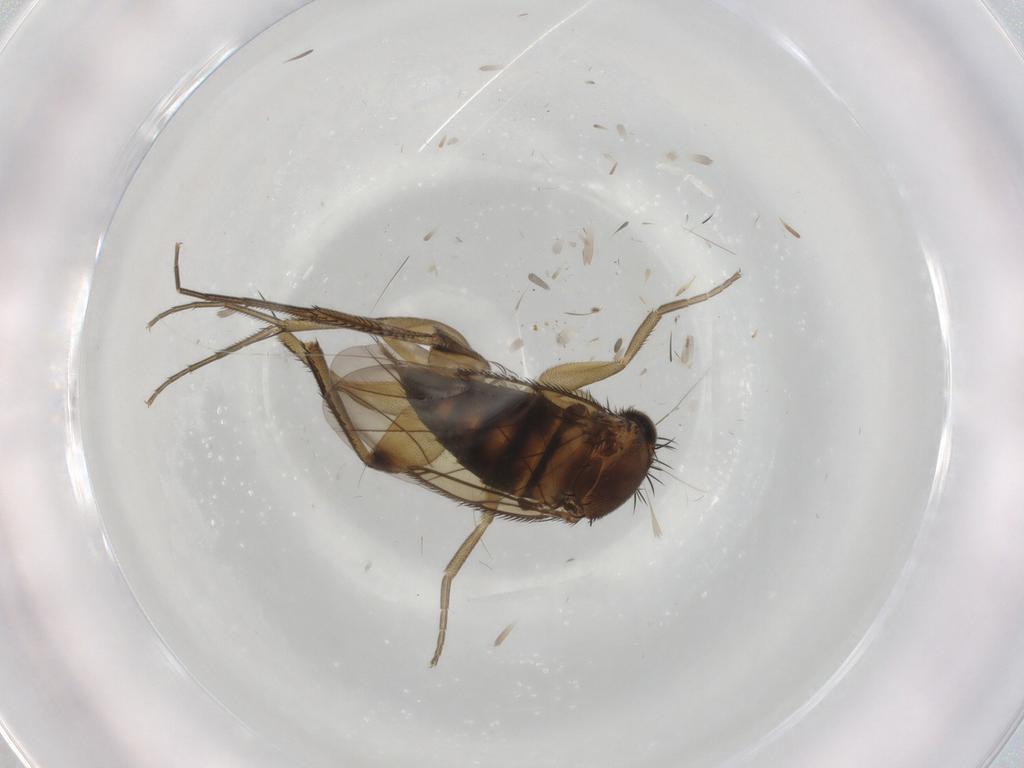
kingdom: Animalia
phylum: Arthropoda
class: Insecta
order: Diptera
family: Phoridae
